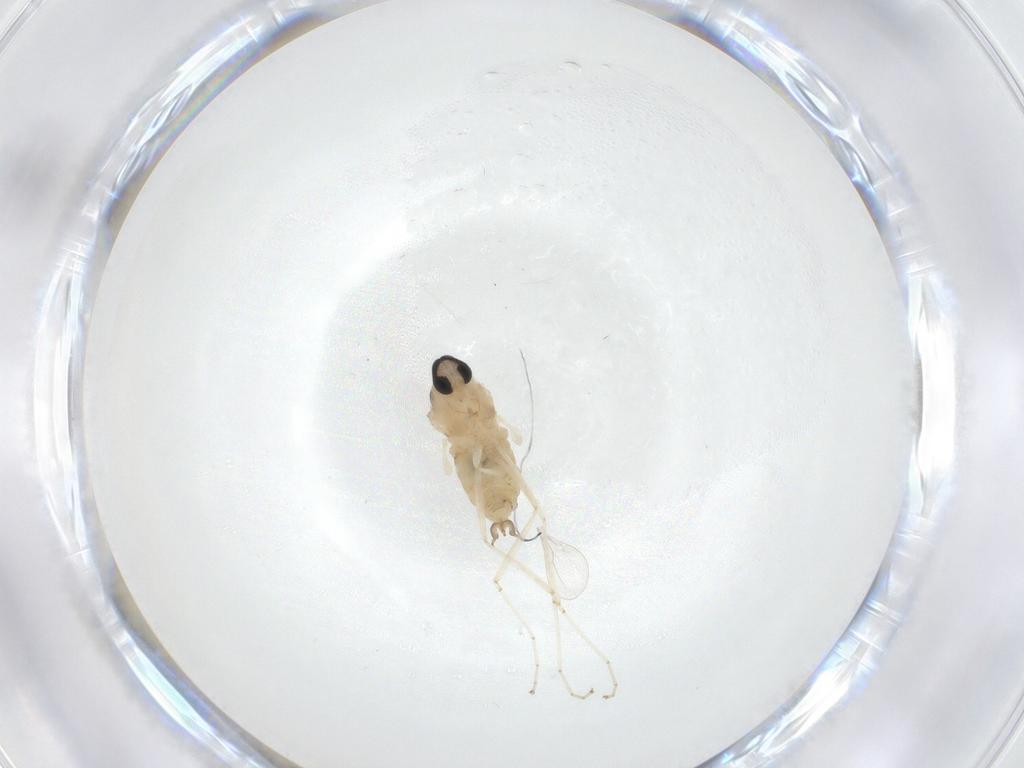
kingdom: Animalia
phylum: Arthropoda
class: Insecta
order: Diptera
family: Cecidomyiidae
